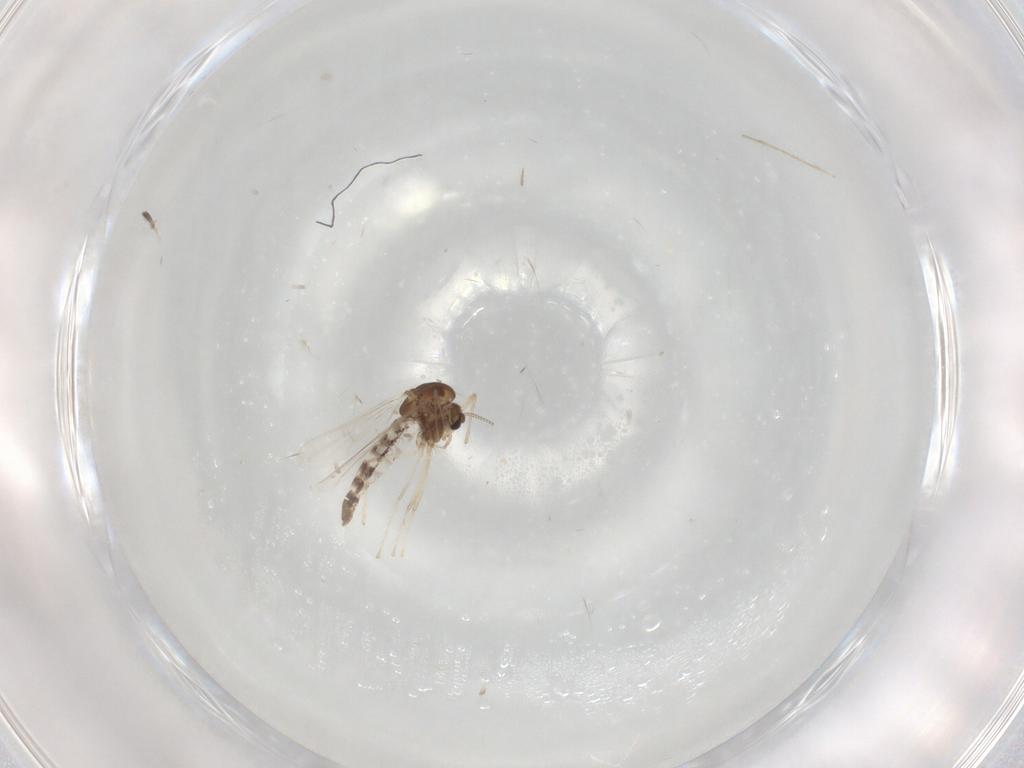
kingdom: Animalia
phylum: Arthropoda
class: Insecta
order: Diptera
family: Chironomidae
